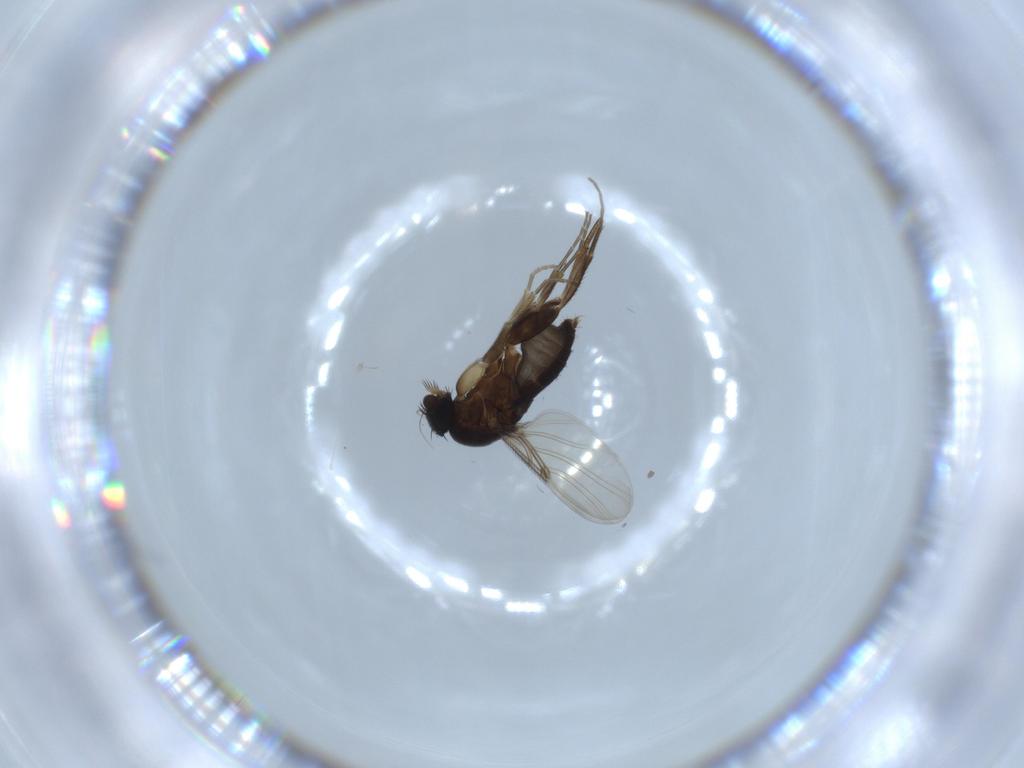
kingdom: Animalia
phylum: Arthropoda
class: Insecta
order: Diptera
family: Phoridae
